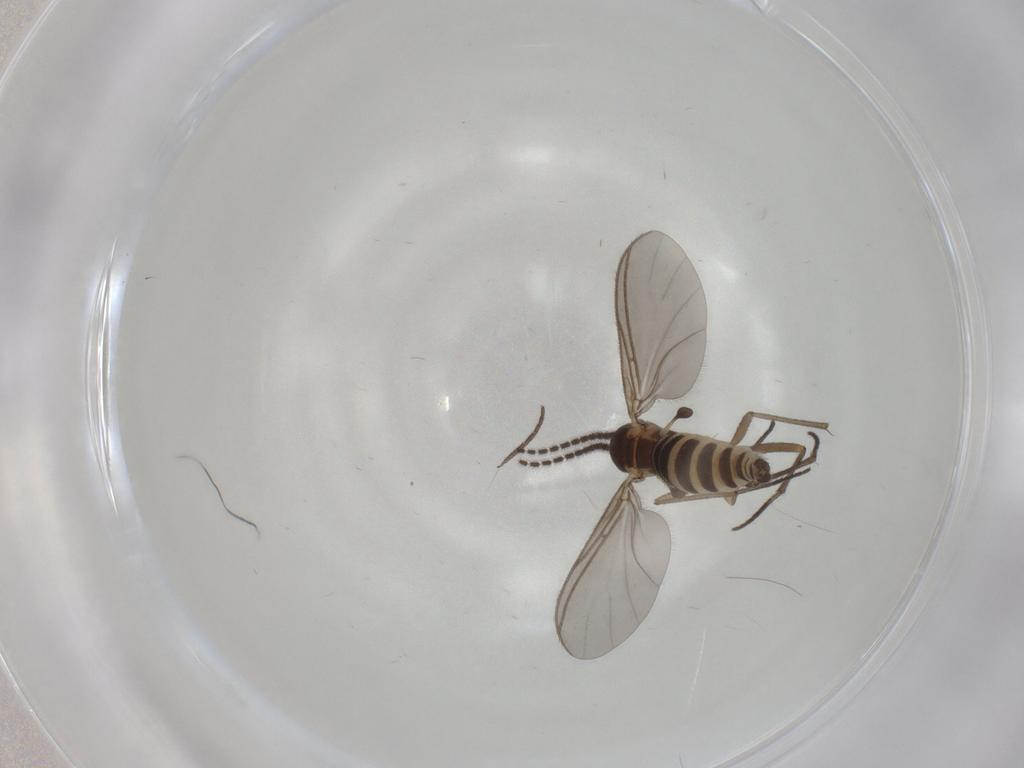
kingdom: Animalia
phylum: Arthropoda
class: Insecta
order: Diptera
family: Sciaridae
